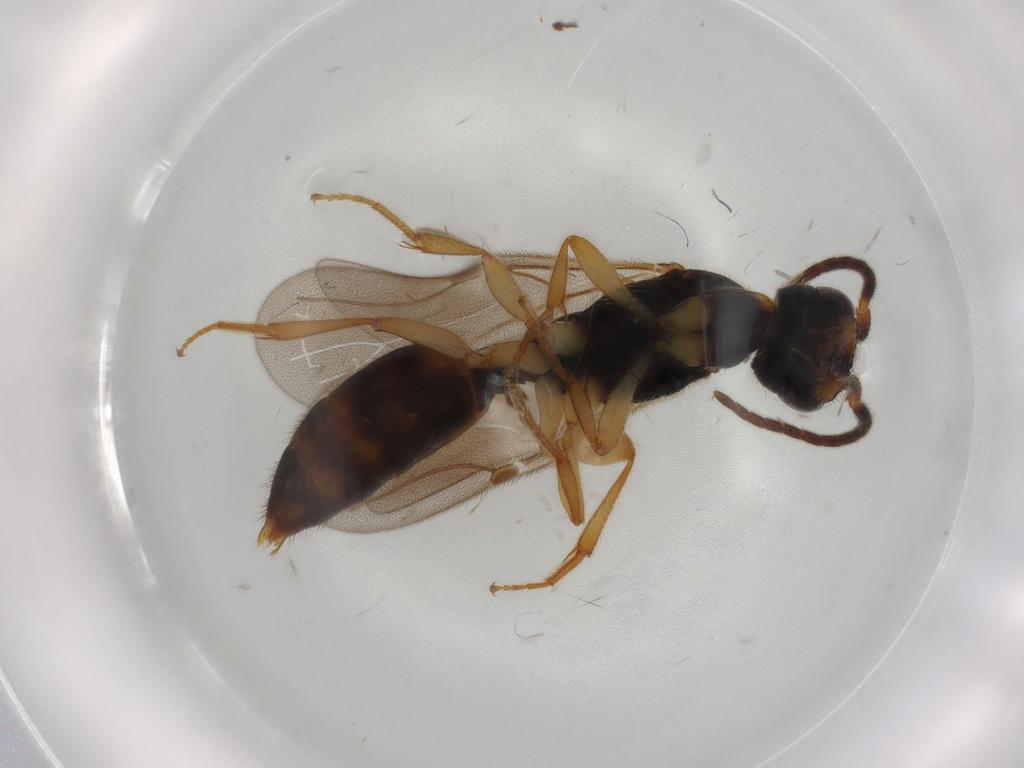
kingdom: Animalia
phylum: Arthropoda
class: Insecta
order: Hymenoptera
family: Bethylidae
